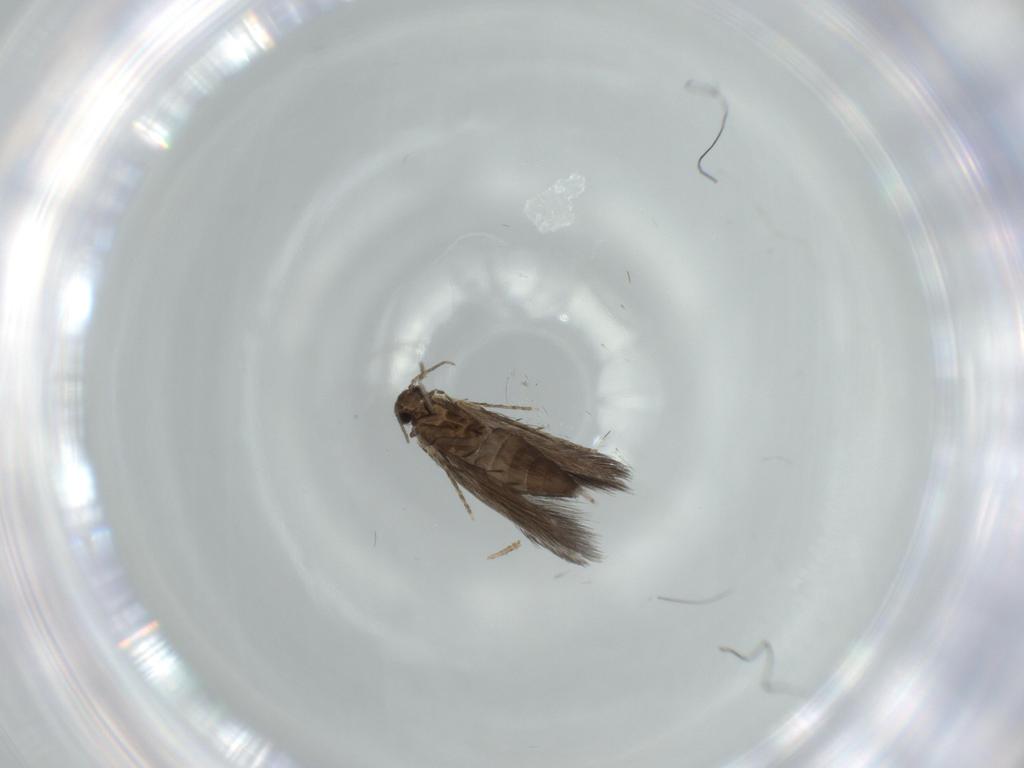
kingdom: Animalia
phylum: Arthropoda
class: Insecta
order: Trichoptera
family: Hydroptilidae
